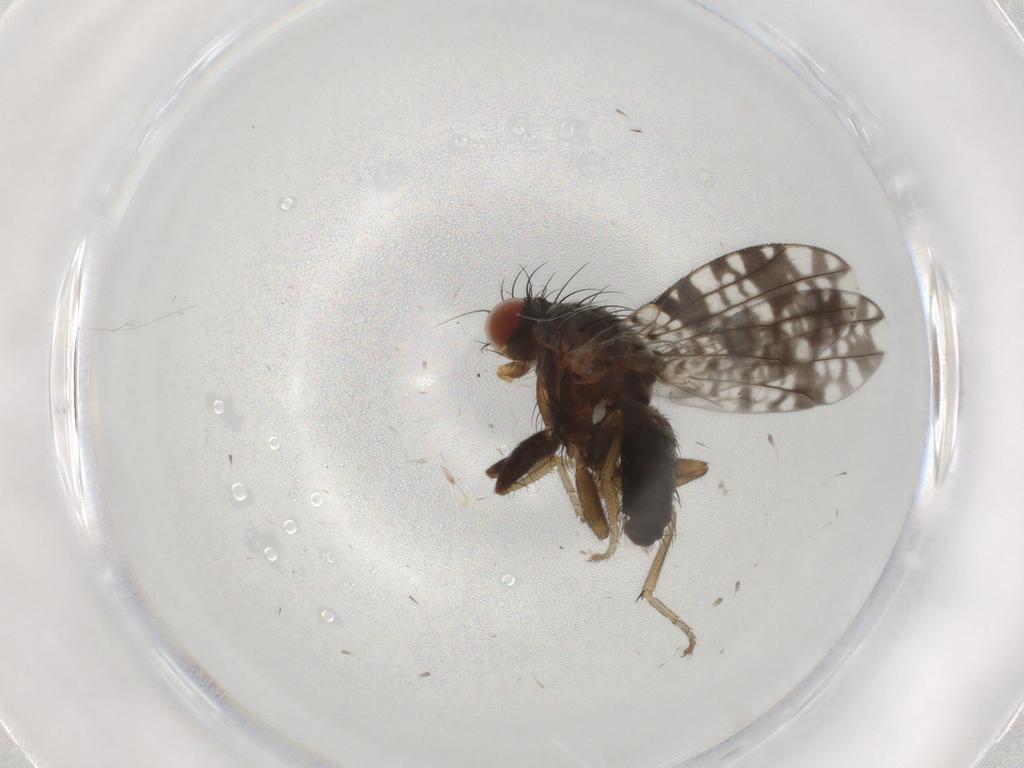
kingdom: Animalia
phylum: Arthropoda
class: Insecta
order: Diptera
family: Tephritidae
